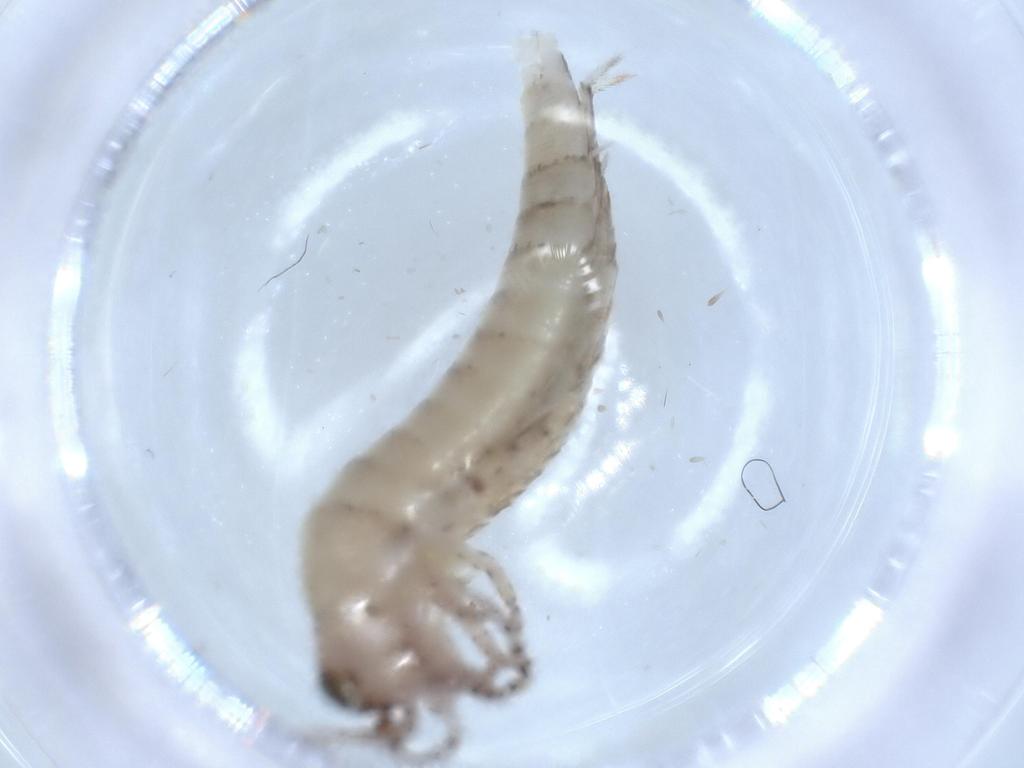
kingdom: Animalia
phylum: Arthropoda
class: Insecta
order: Archaeognatha
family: Machilidae
